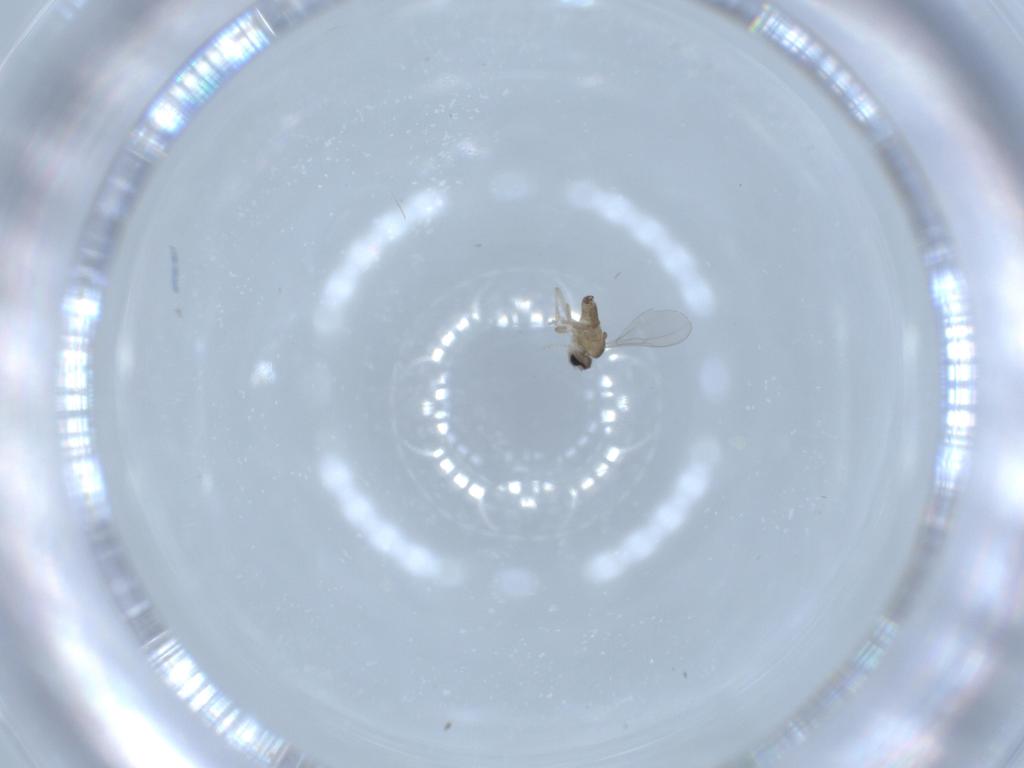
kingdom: Animalia
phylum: Arthropoda
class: Insecta
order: Diptera
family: Cecidomyiidae
